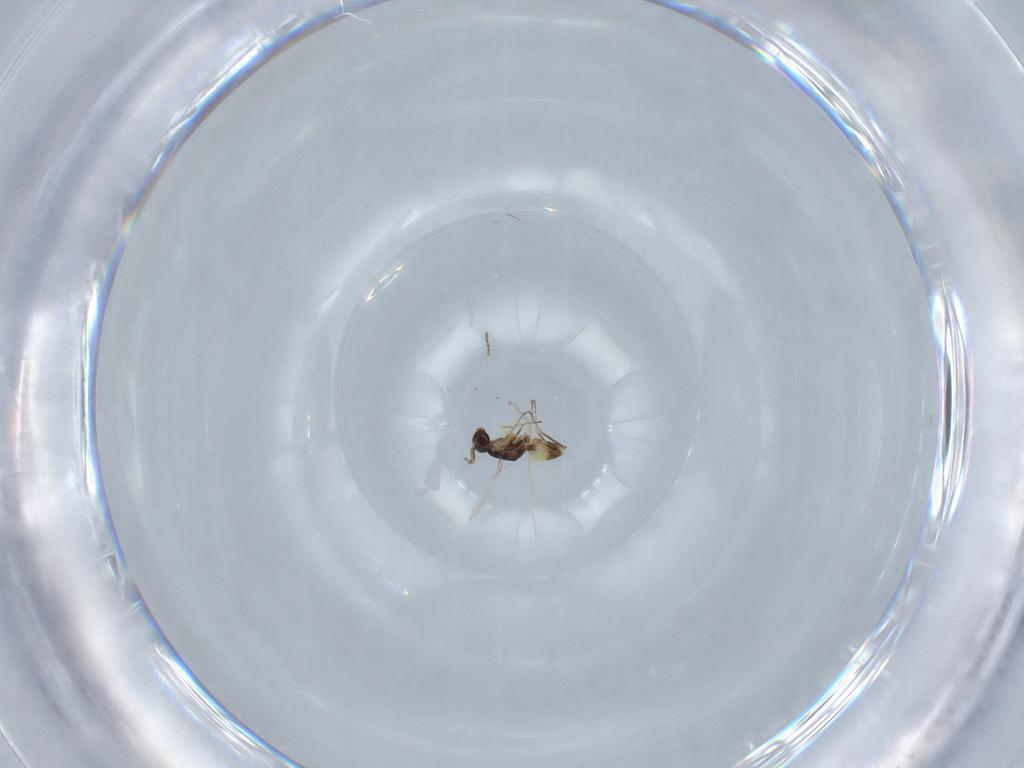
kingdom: Animalia
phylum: Arthropoda
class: Insecta
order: Hymenoptera
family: Mymaridae
